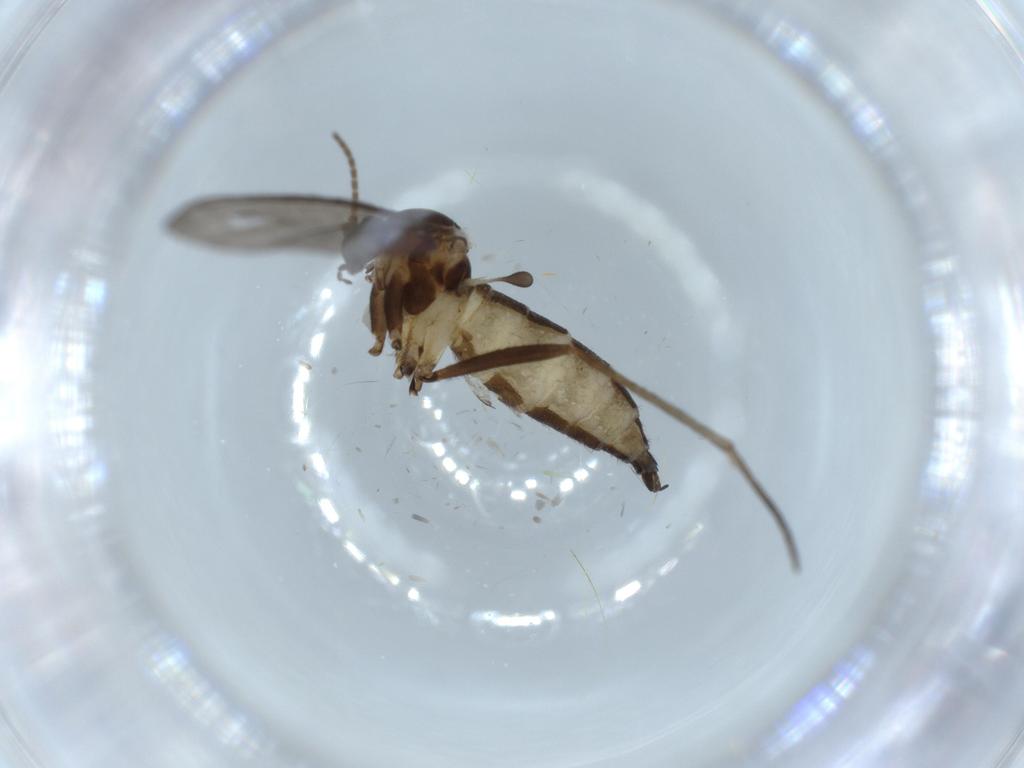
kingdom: Animalia
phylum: Arthropoda
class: Insecta
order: Diptera
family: Sciaridae
